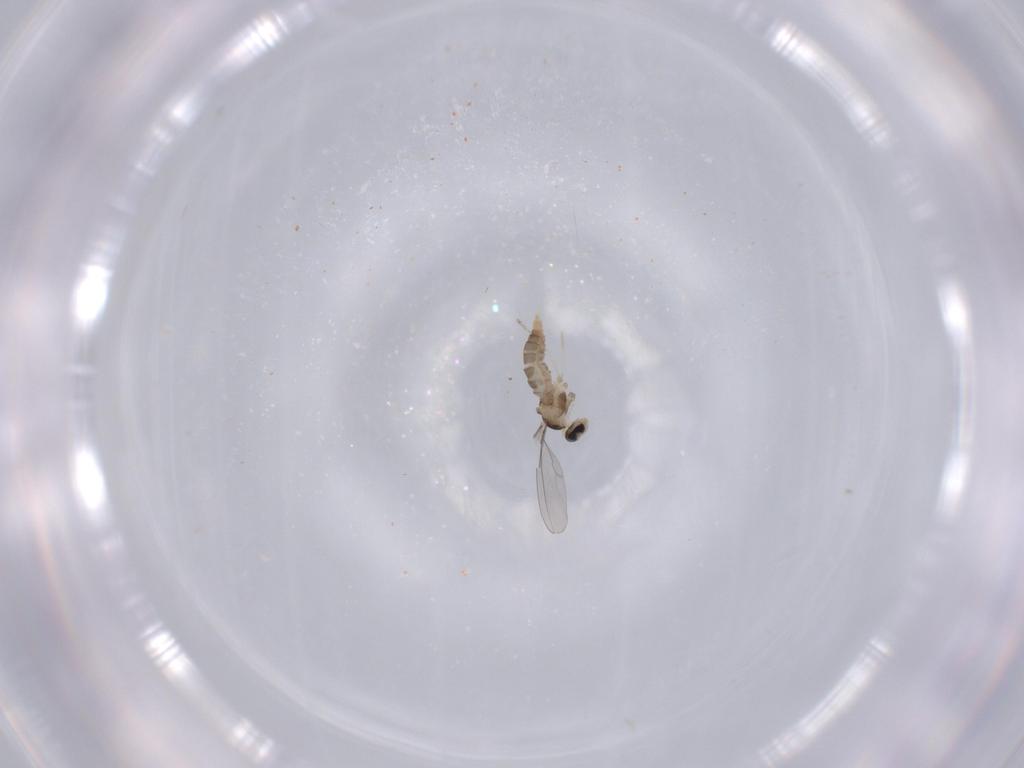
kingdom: Animalia
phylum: Arthropoda
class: Insecta
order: Diptera
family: Cecidomyiidae
